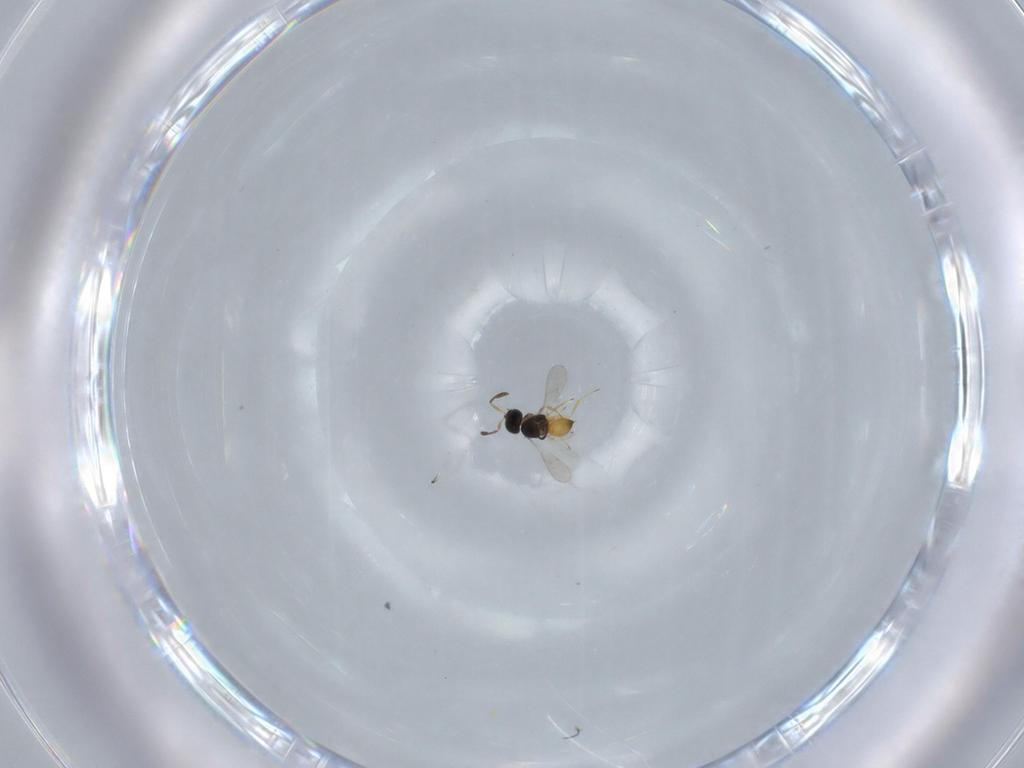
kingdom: Animalia
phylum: Arthropoda
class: Insecta
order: Hymenoptera
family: Scelionidae
